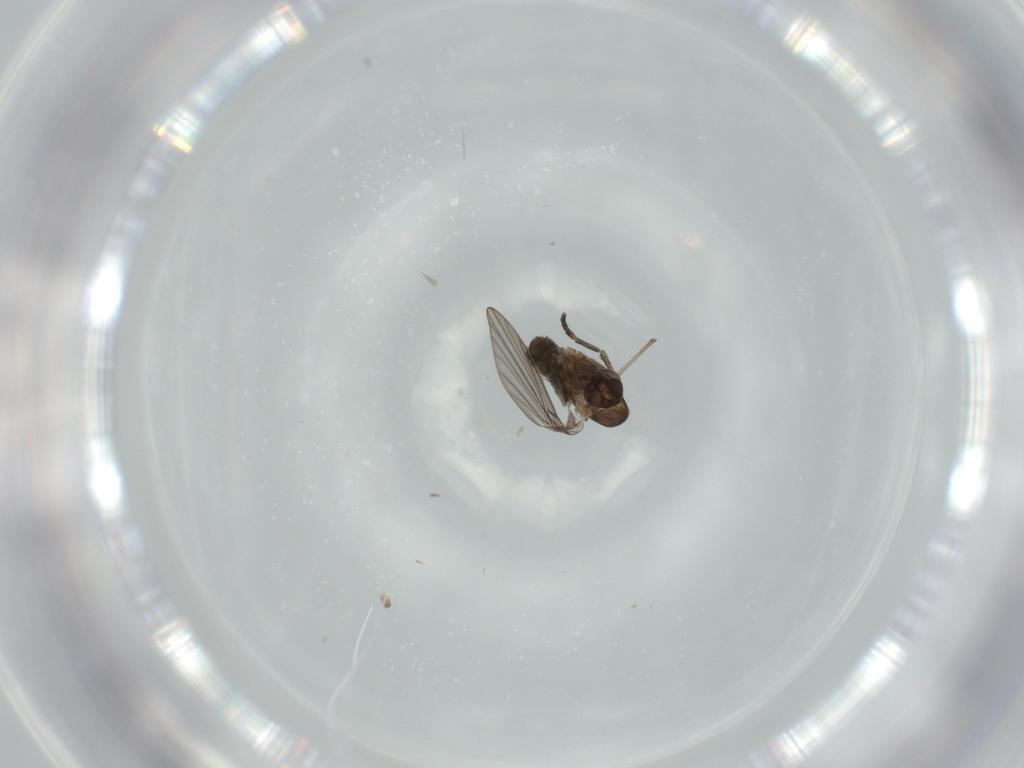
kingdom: Animalia
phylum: Arthropoda
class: Insecta
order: Diptera
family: Psychodidae
